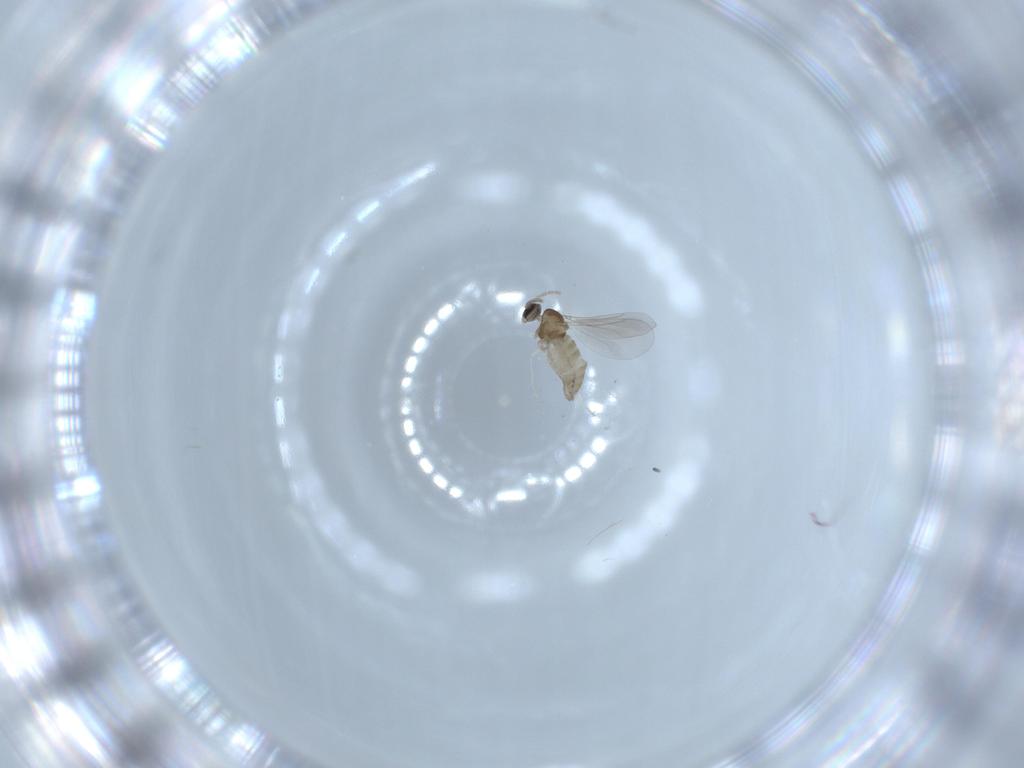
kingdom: Animalia
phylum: Arthropoda
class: Insecta
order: Diptera
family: Cecidomyiidae
